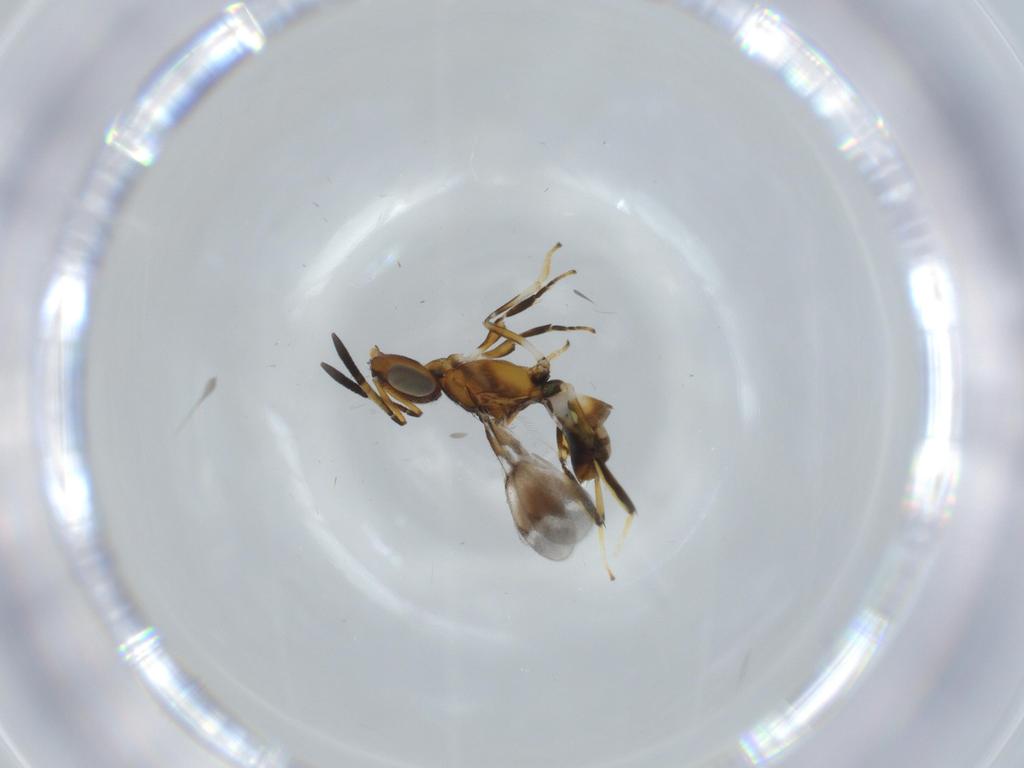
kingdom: Animalia
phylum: Arthropoda
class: Insecta
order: Hymenoptera
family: Eupelmidae
